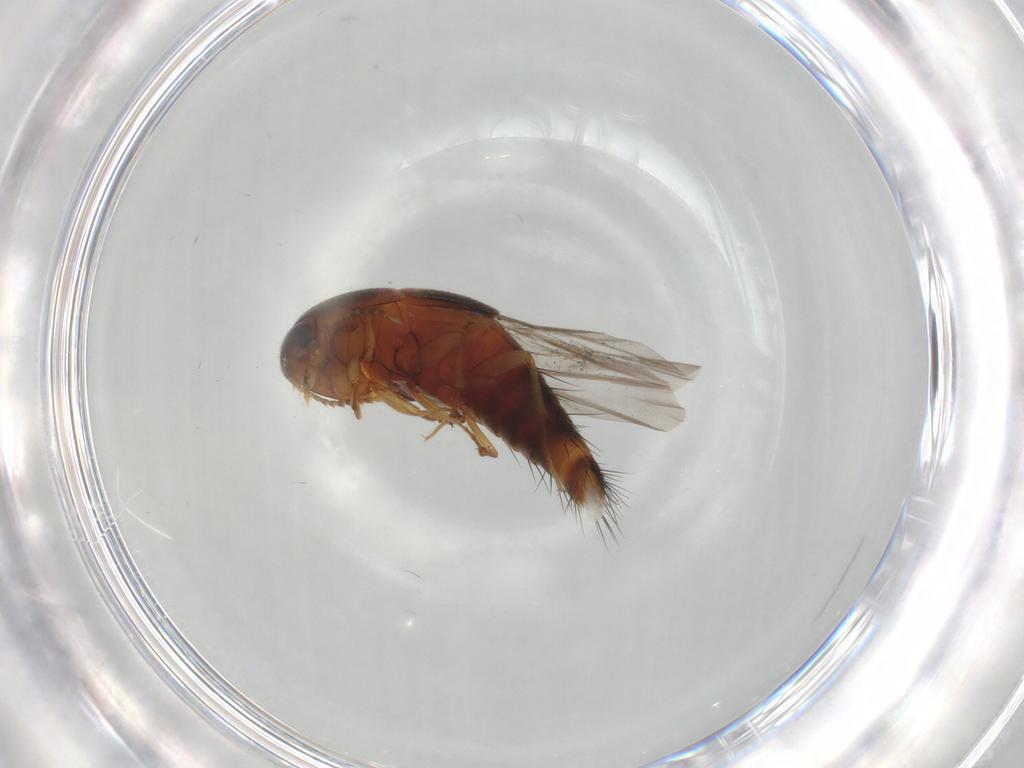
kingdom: Animalia
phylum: Arthropoda
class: Insecta
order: Coleoptera
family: Staphylinidae
